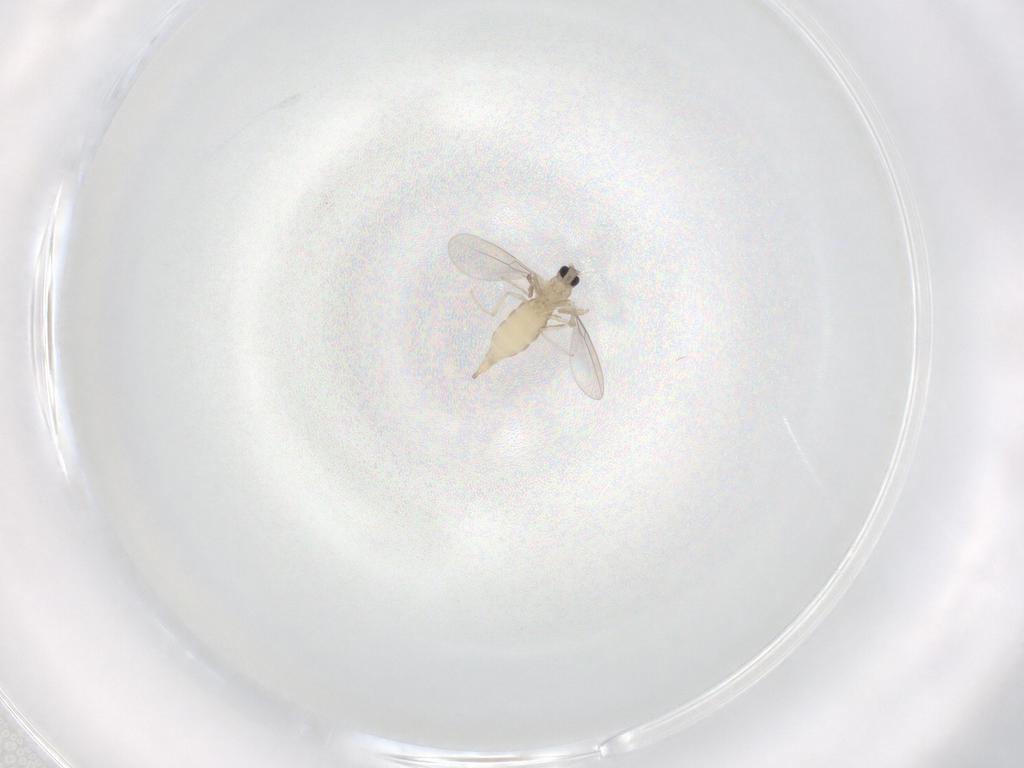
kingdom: Animalia
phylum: Arthropoda
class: Insecta
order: Diptera
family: Cecidomyiidae
